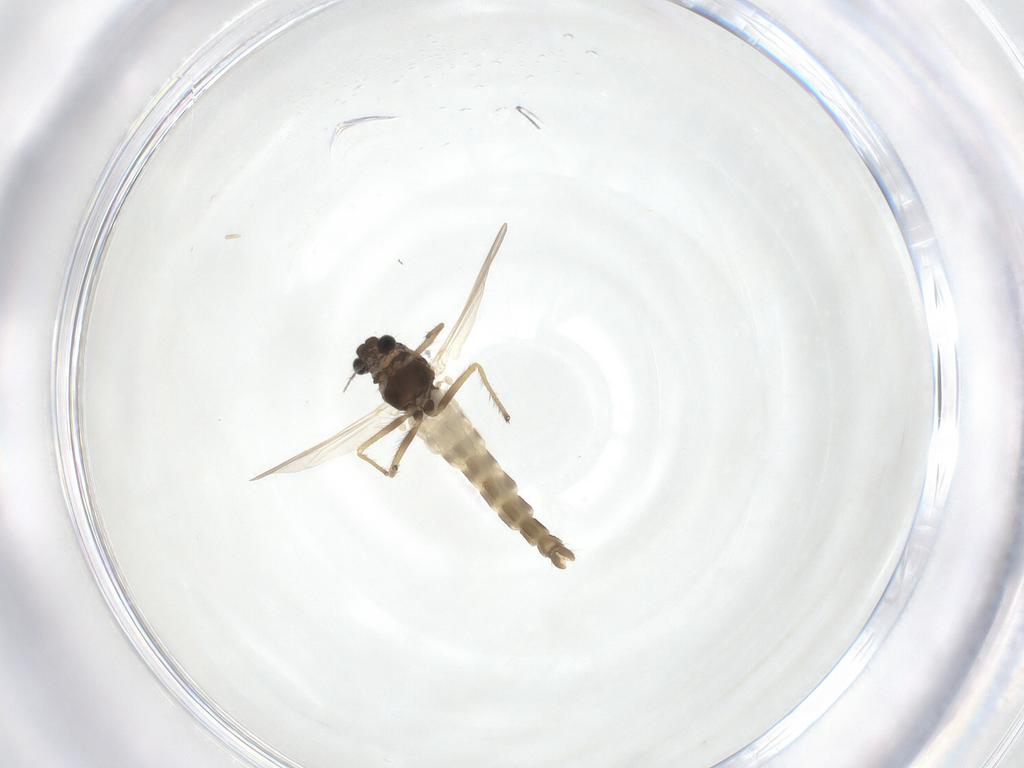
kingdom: Animalia
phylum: Arthropoda
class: Insecta
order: Diptera
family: Chironomidae
